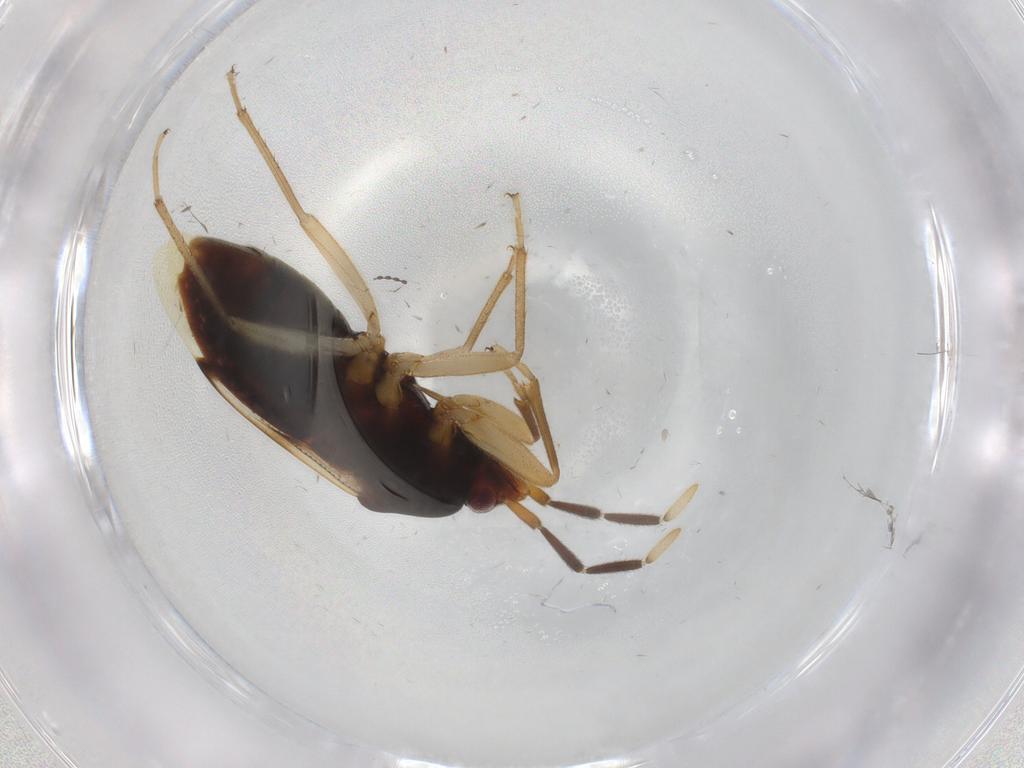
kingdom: Animalia
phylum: Arthropoda
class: Insecta
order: Hemiptera
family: Rhyparochromidae
